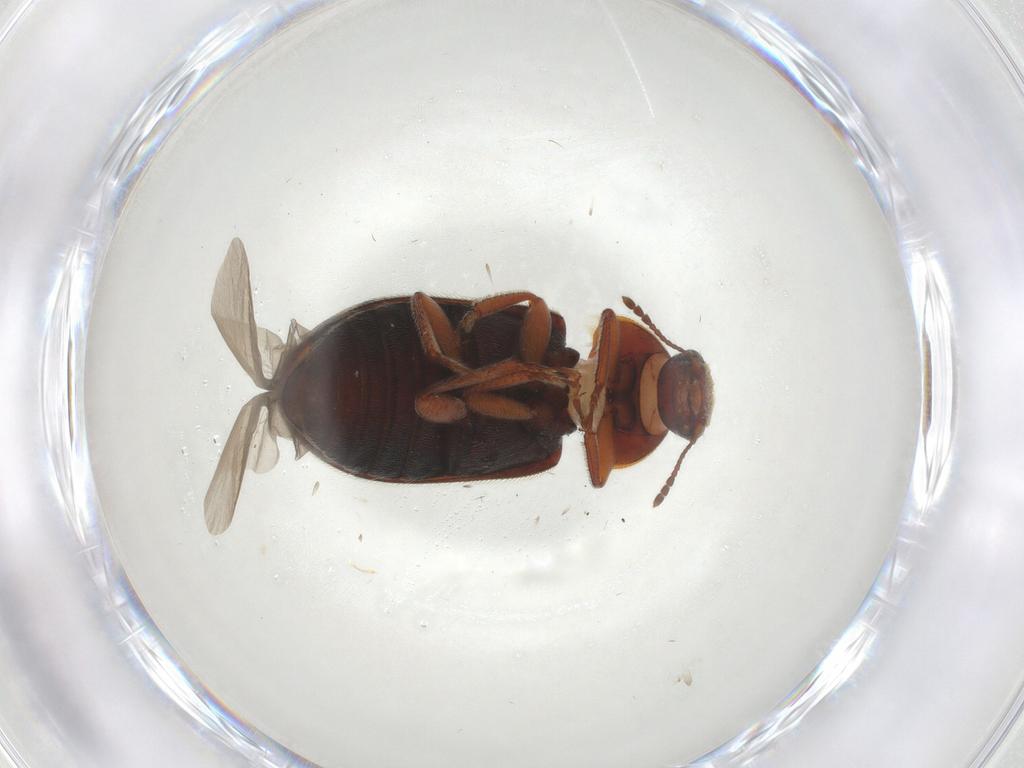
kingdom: Animalia
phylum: Arthropoda
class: Insecta
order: Coleoptera
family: Byturidae
